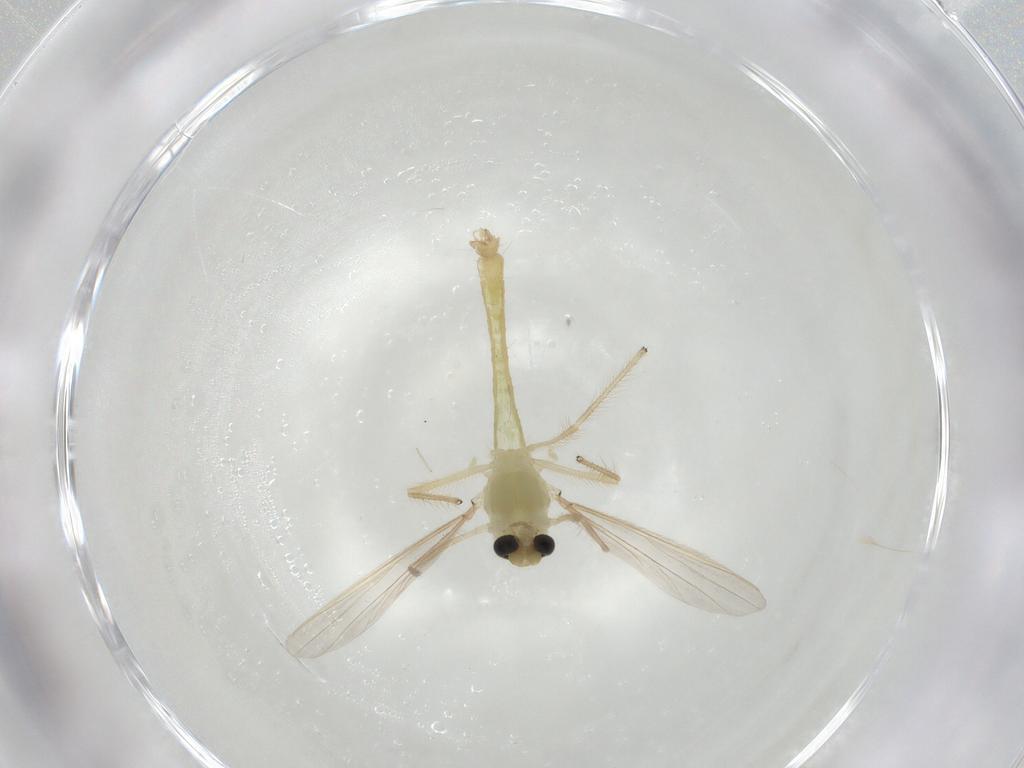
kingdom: Animalia
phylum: Arthropoda
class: Insecta
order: Diptera
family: Chironomidae
